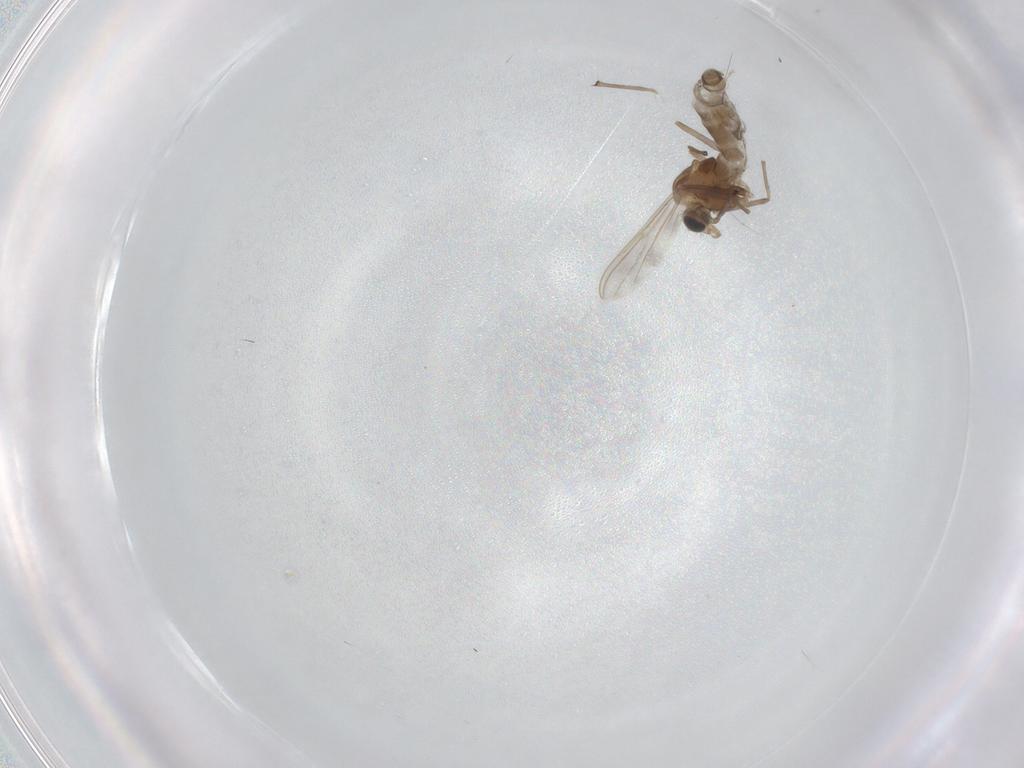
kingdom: Animalia
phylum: Arthropoda
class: Insecta
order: Diptera
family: Chironomidae
